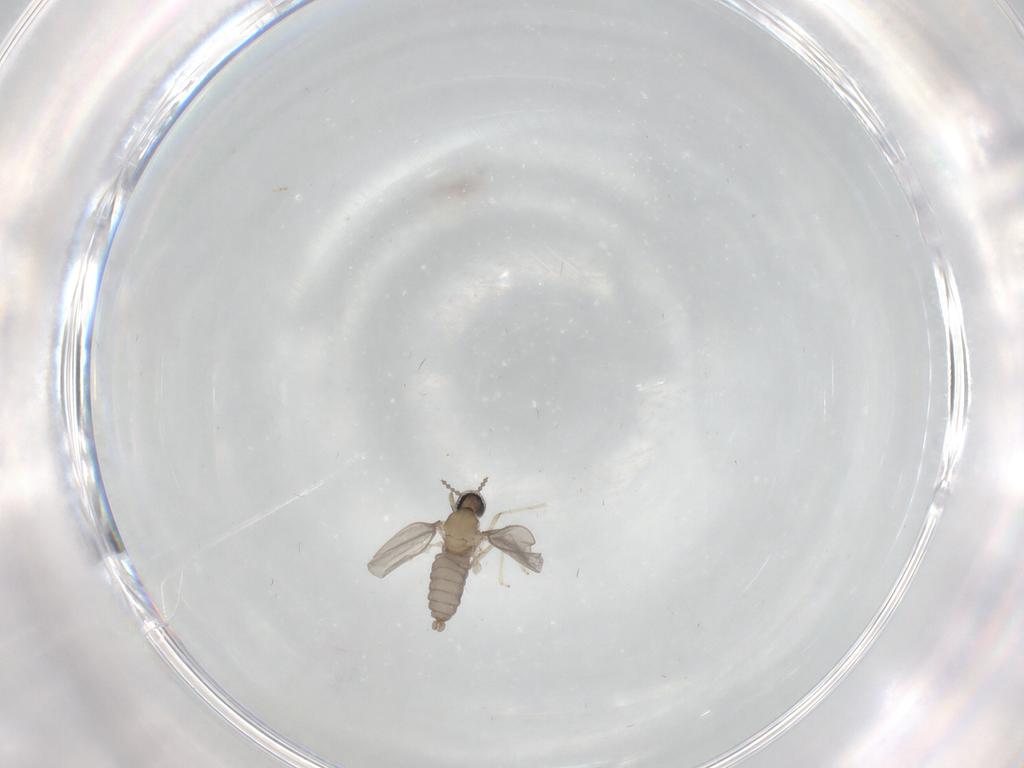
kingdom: Animalia
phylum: Arthropoda
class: Insecta
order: Diptera
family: Cecidomyiidae
